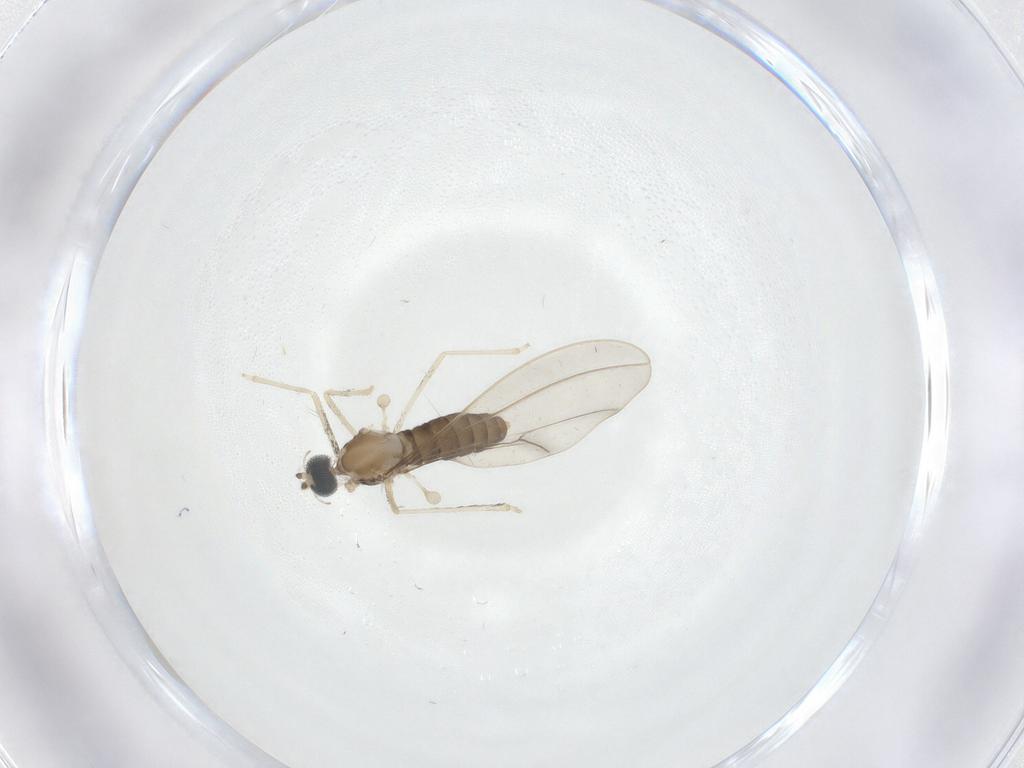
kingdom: Animalia
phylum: Arthropoda
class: Insecta
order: Diptera
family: Cecidomyiidae
